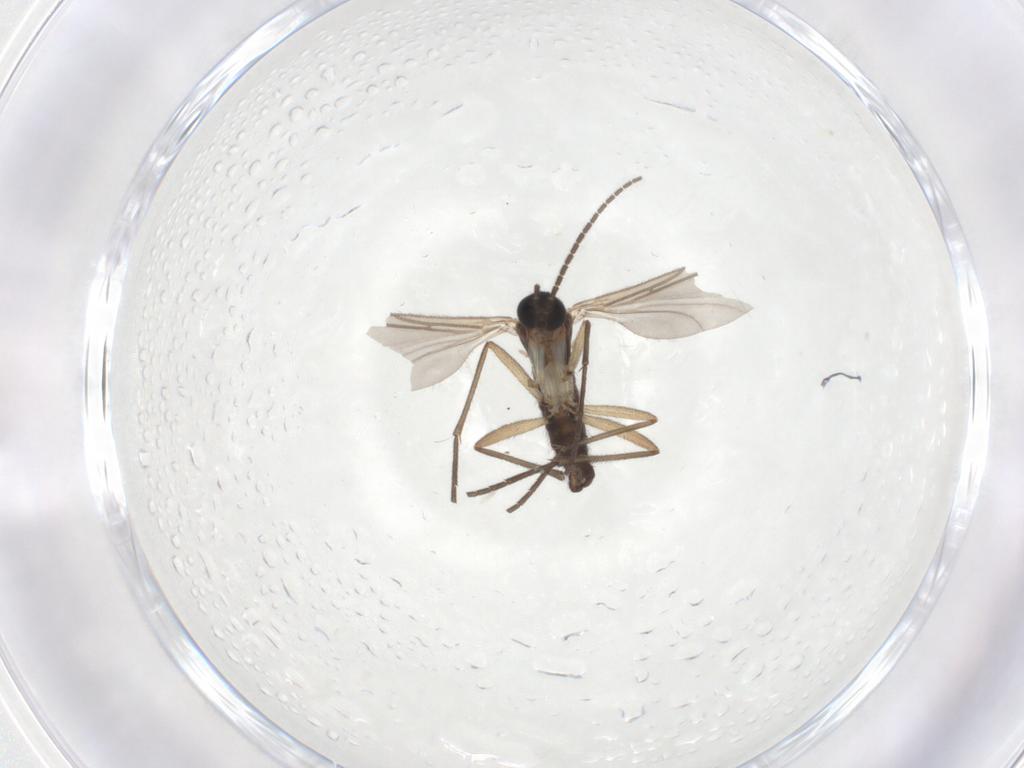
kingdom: Animalia
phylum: Arthropoda
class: Insecta
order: Diptera
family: Sciaridae
